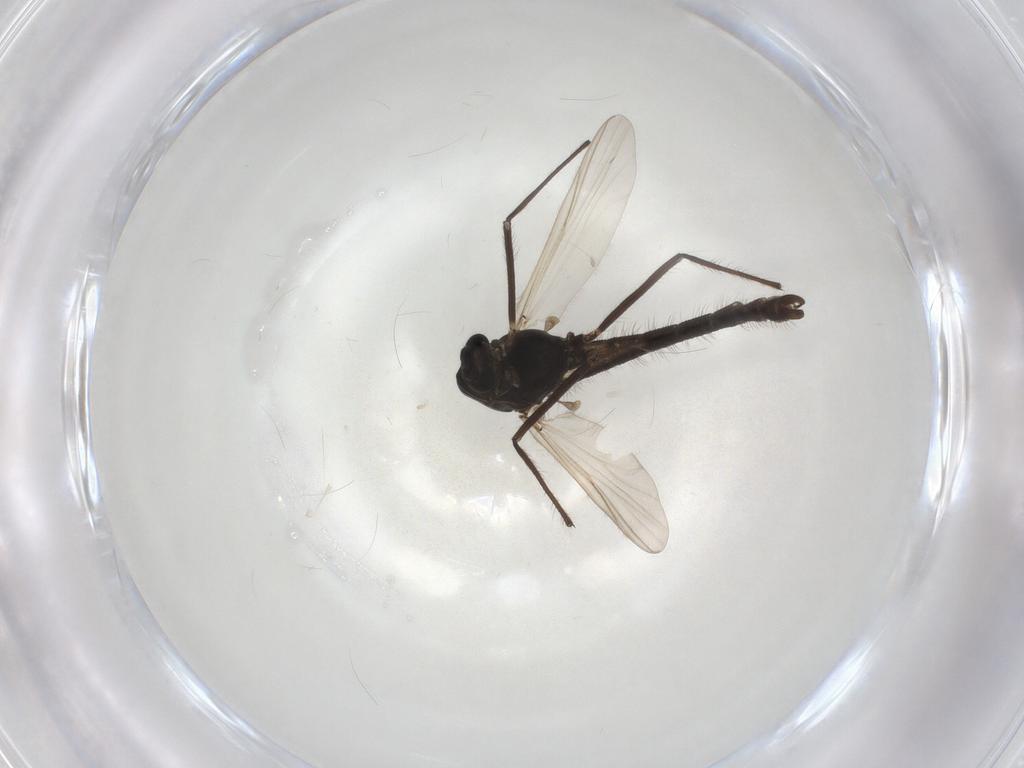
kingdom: Animalia
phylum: Arthropoda
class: Insecta
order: Diptera
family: Chironomidae
